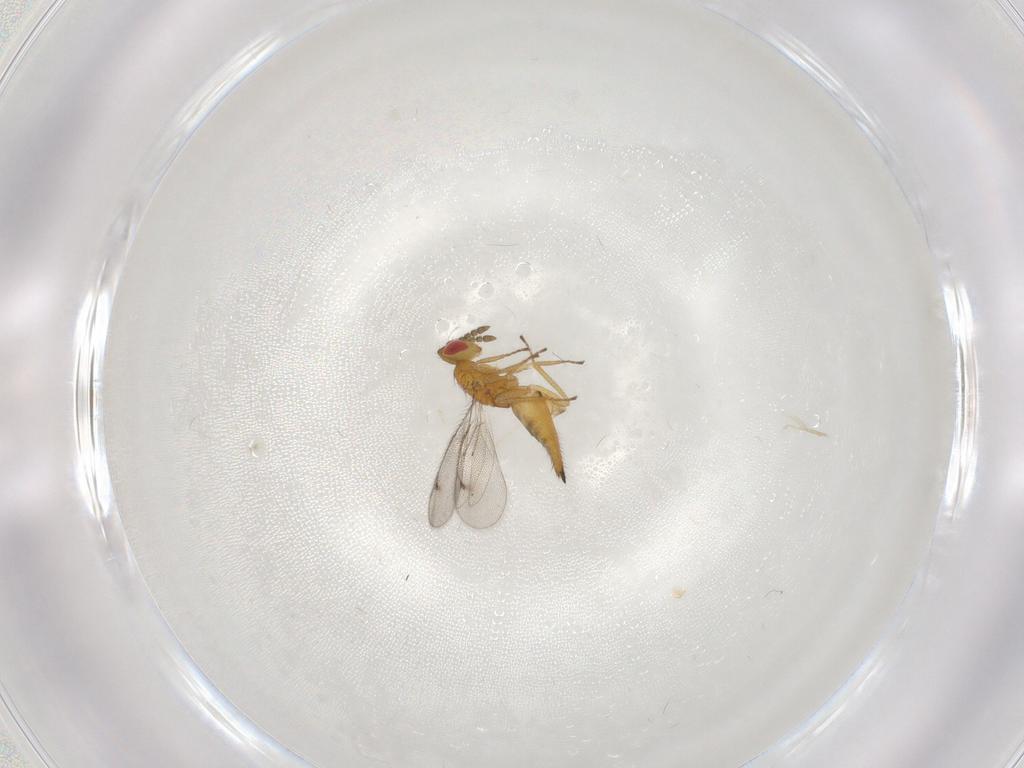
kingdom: Animalia
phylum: Arthropoda
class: Insecta
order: Hymenoptera
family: Eulophidae
